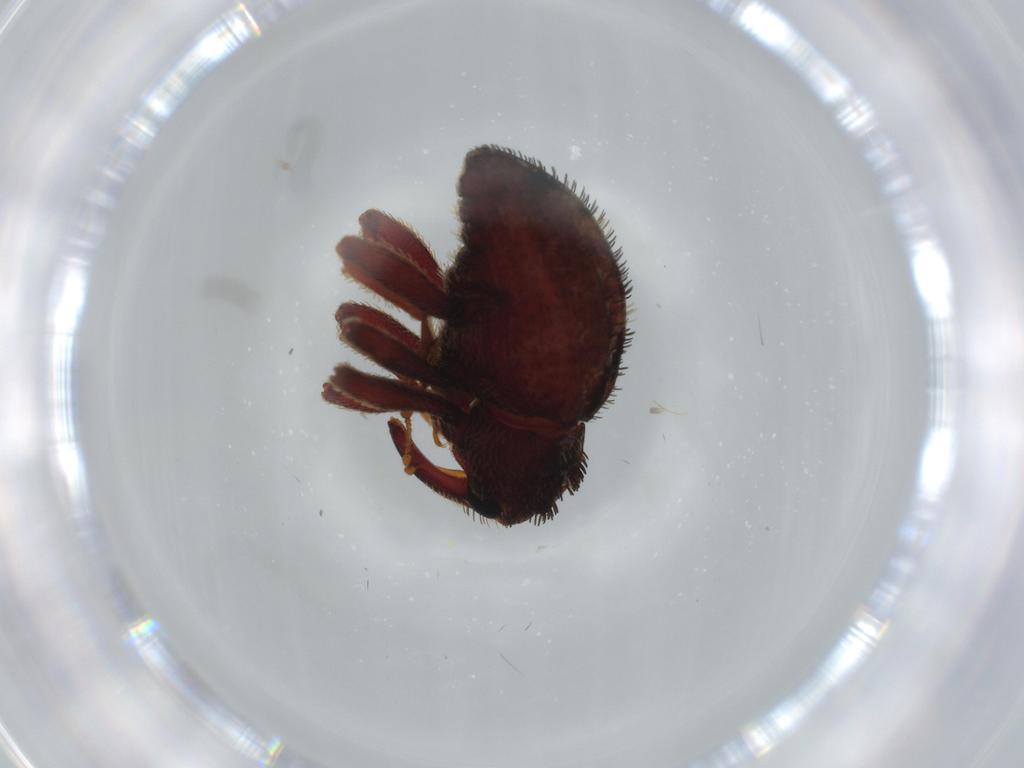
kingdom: Animalia
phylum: Arthropoda
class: Insecta
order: Coleoptera
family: Curculionidae
